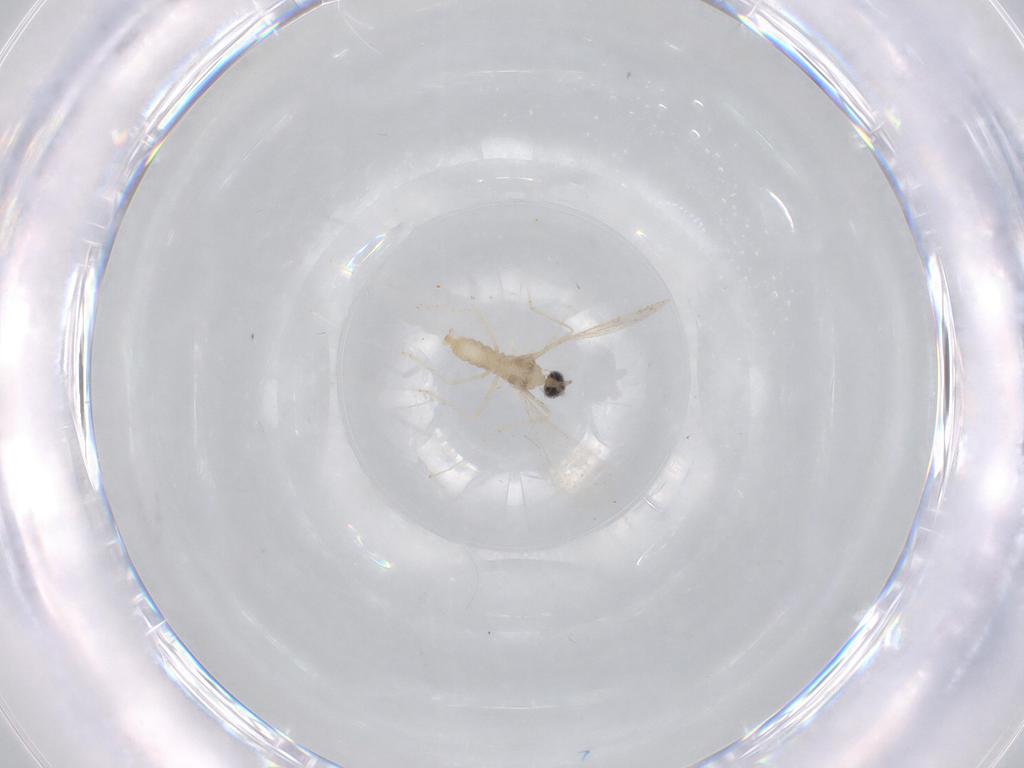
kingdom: Animalia
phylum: Arthropoda
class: Insecta
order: Diptera
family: Cecidomyiidae
